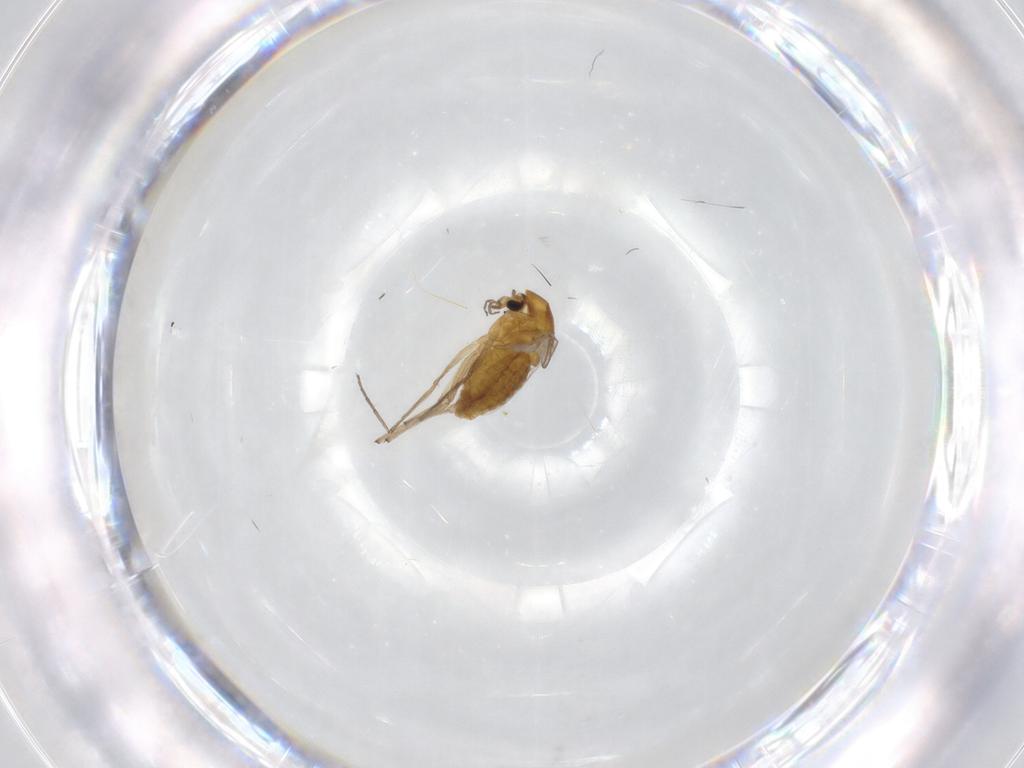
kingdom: Animalia
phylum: Arthropoda
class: Insecta
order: Diptera
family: Chironomidae
